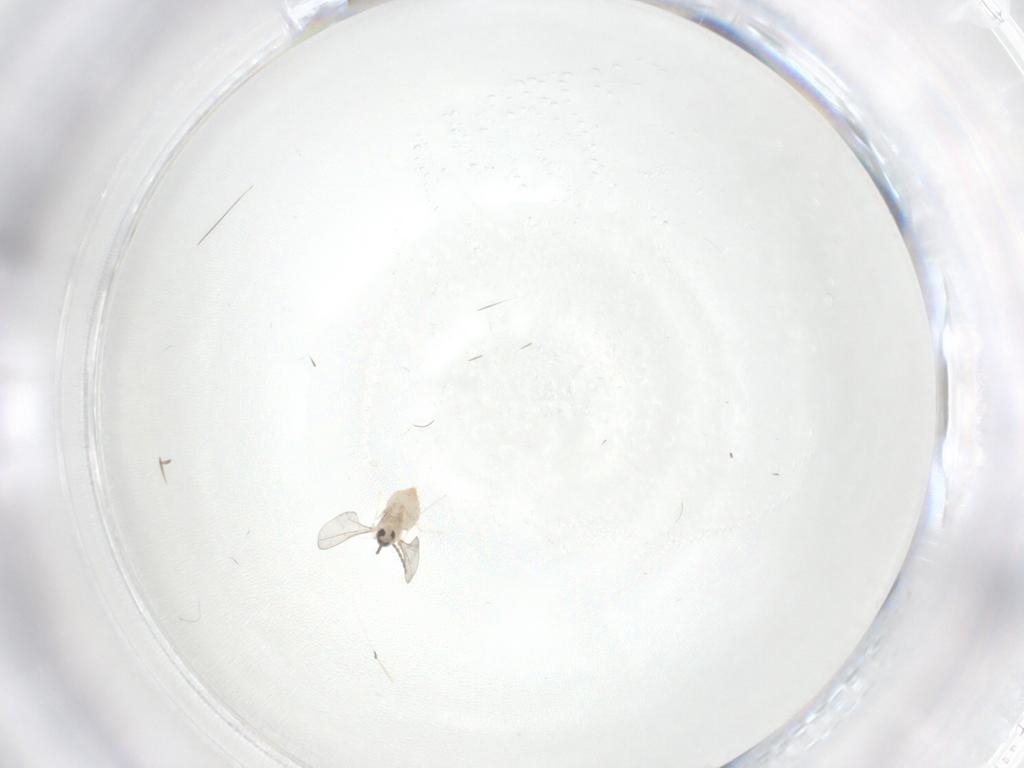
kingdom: Animalia
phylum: Arthropoda
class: Insecta
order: Diptera
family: Cecidomyiidae
